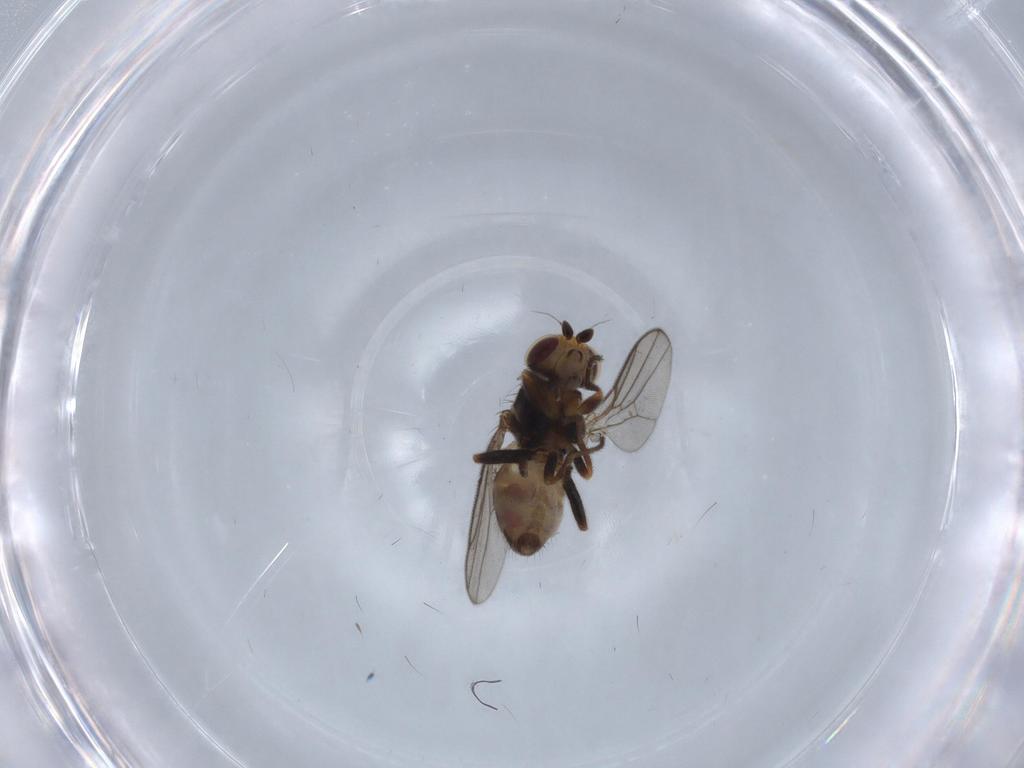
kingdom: Animalia
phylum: Arthropoda
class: Insecta
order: Diptera
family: Chloropidae
